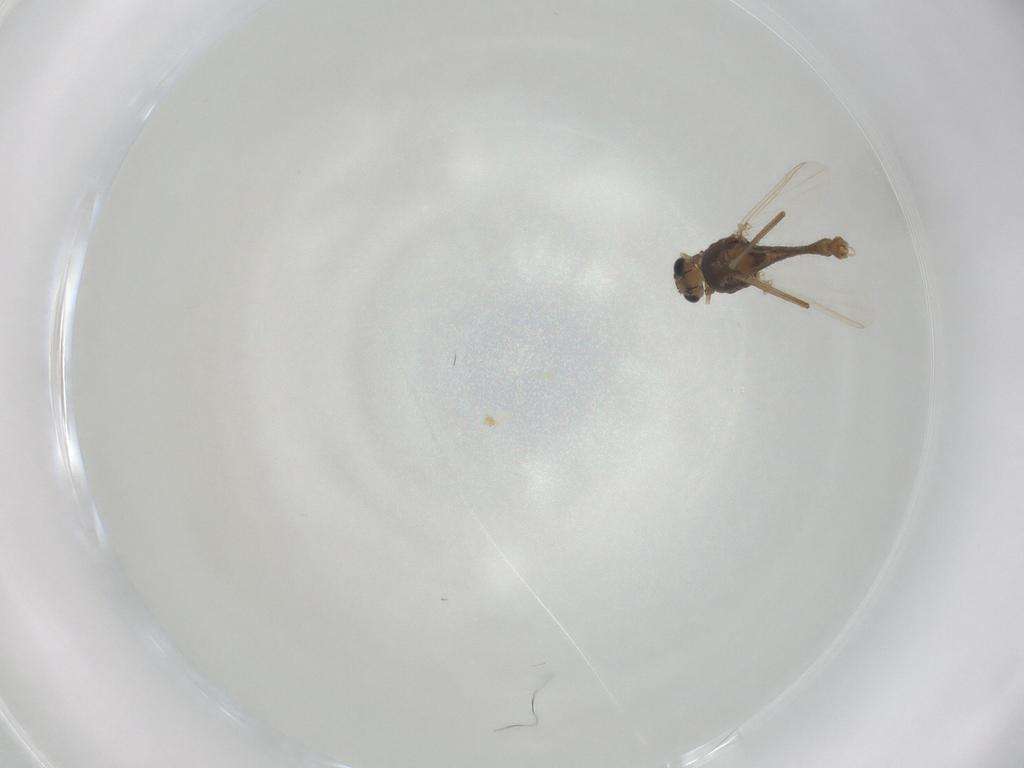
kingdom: Animalia
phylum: Arthropoda
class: Insecta
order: Diptera
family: Chironomidae
